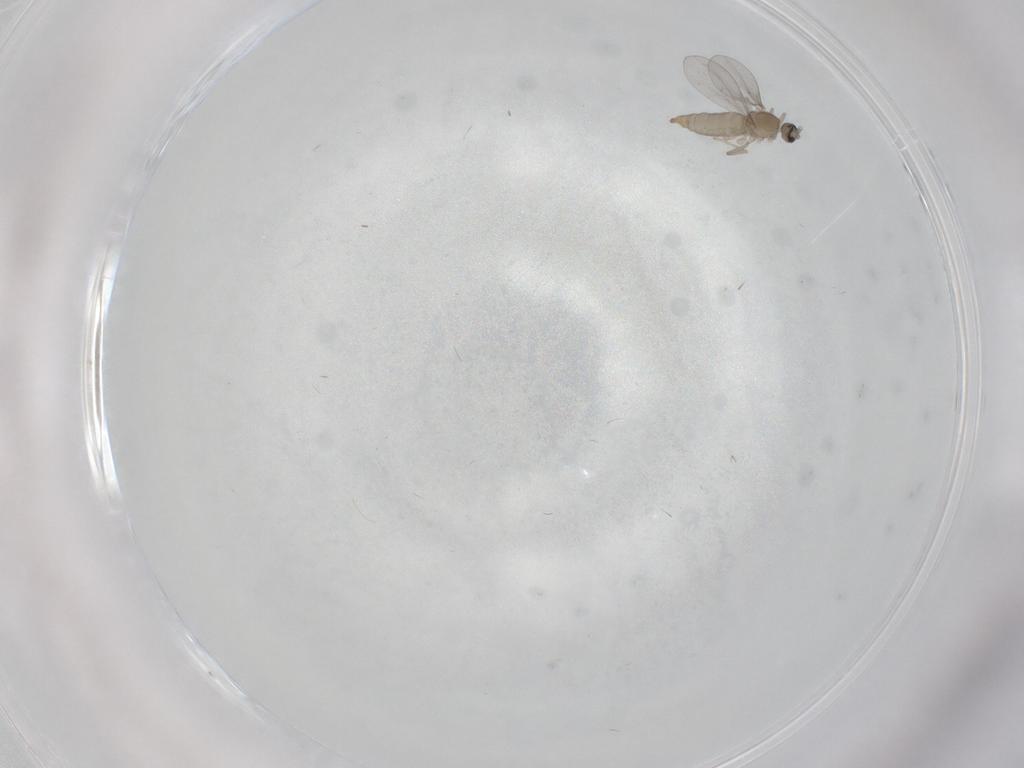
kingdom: Animalia
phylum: Arthropoda
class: Insecta
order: Diptera
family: Cecidomyiidae
